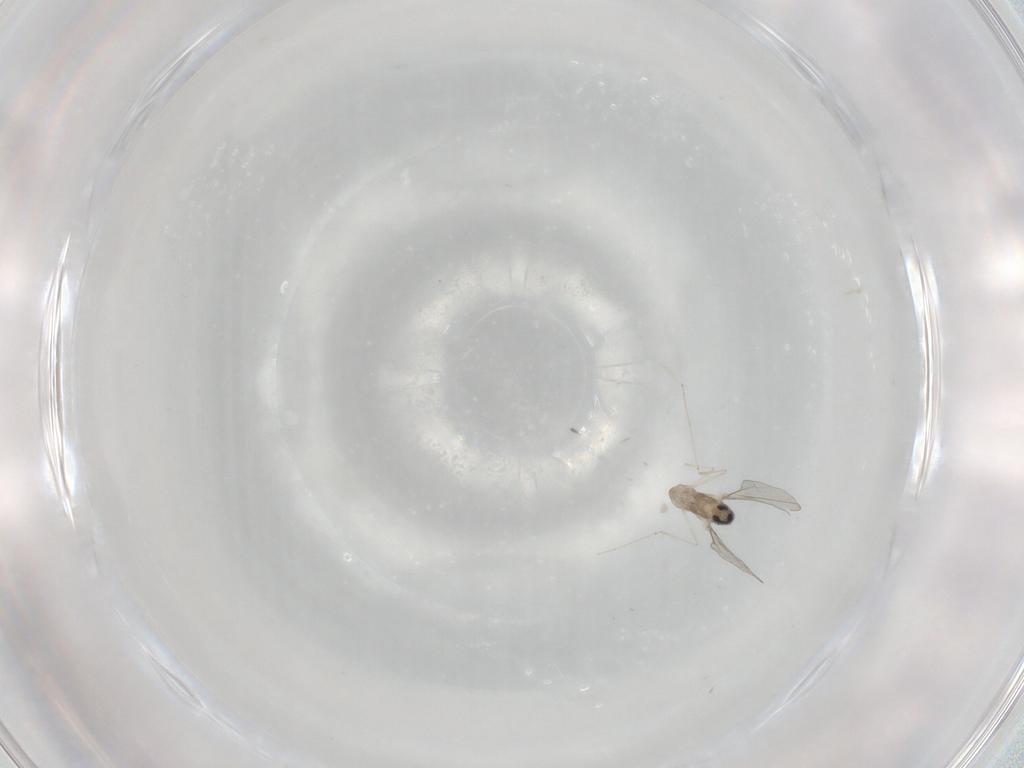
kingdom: Animalia
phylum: Arthropoda
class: Insecta
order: Diptera
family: Cecidomyiidae
